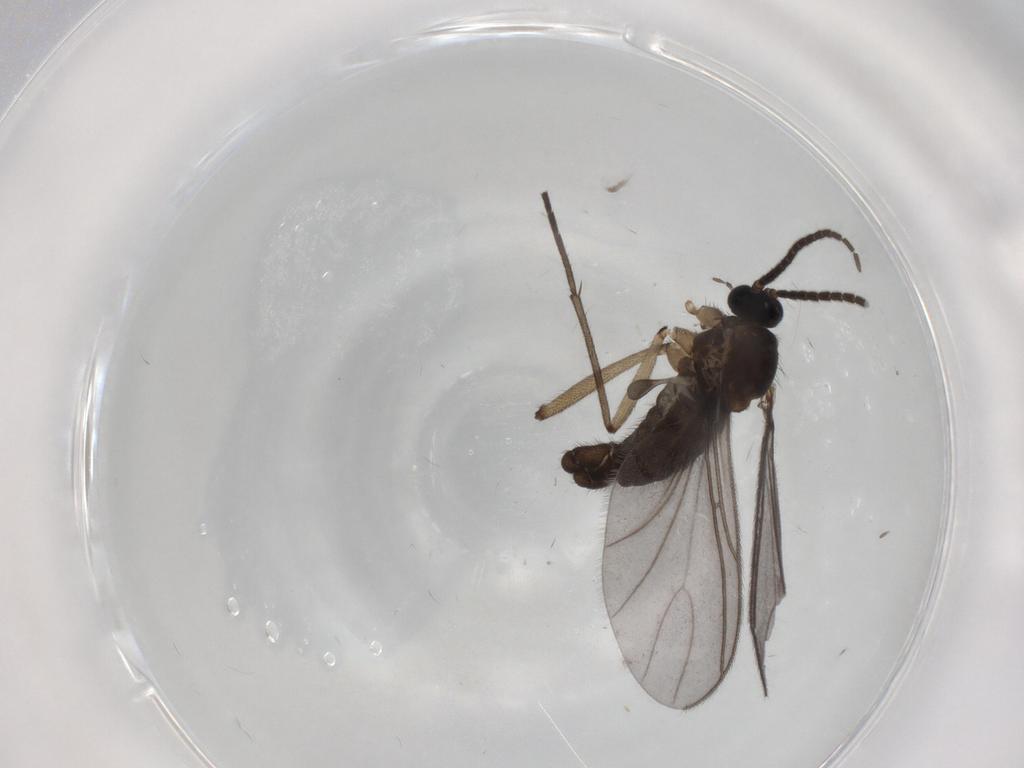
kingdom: Animalia
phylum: Arthropoda
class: Insecta
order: Diptera
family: Sciaridae
